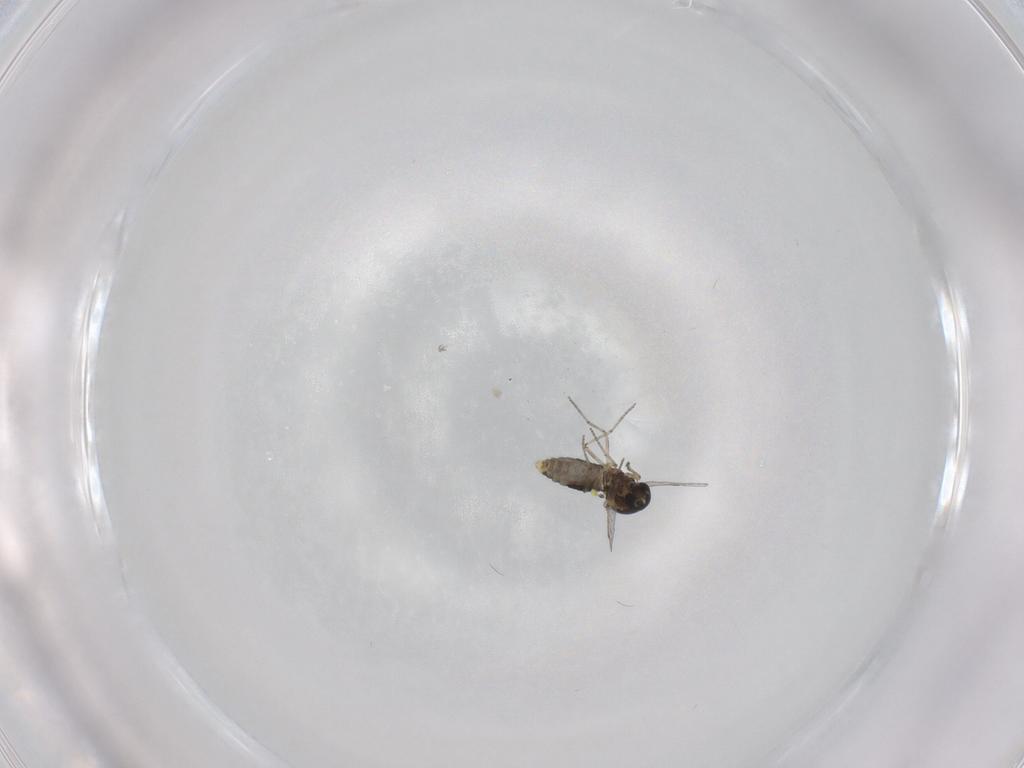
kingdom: Animalia
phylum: Arthropoda
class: Insecta
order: Diptera
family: Ceratopogonidae
